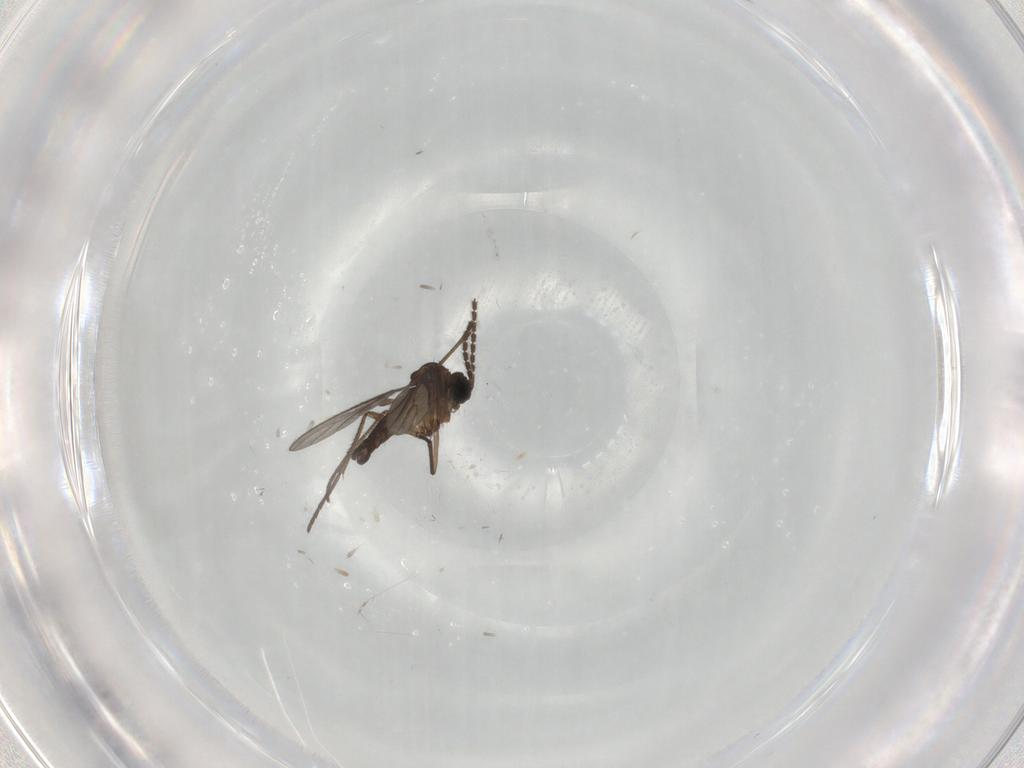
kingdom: Animalia
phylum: Arthropoda
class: Insecta
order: Diptera
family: Sciaridae
